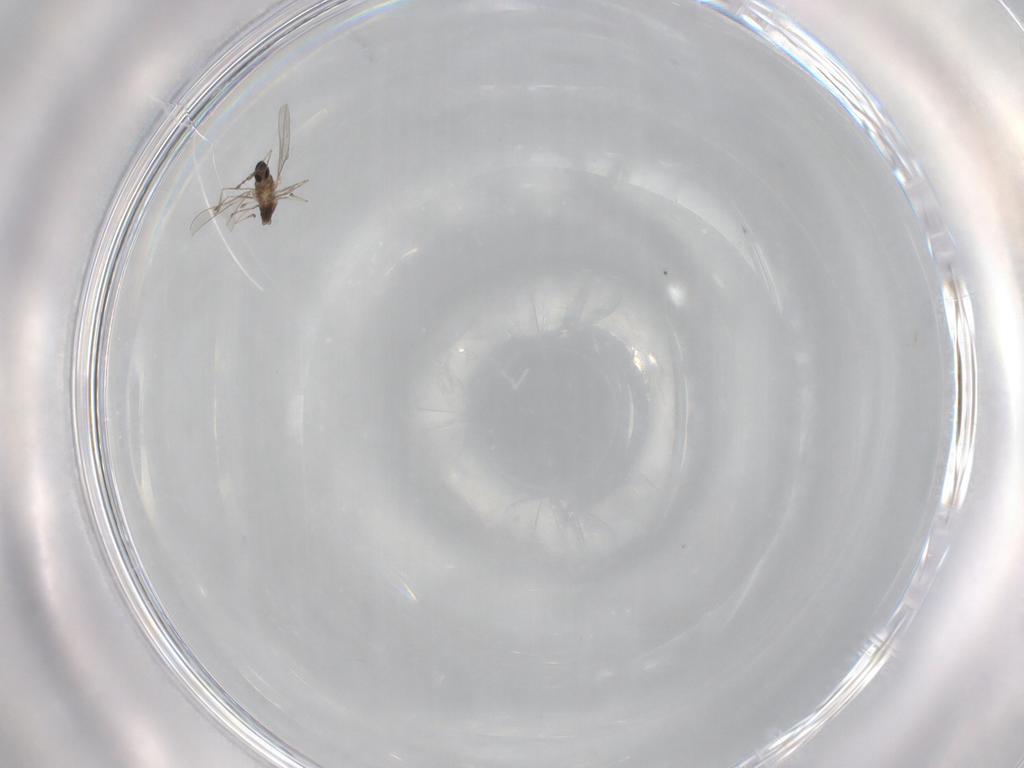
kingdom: Animalia
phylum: Arthropoda
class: Insecta
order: Diptera
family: Cecidomyiidae
